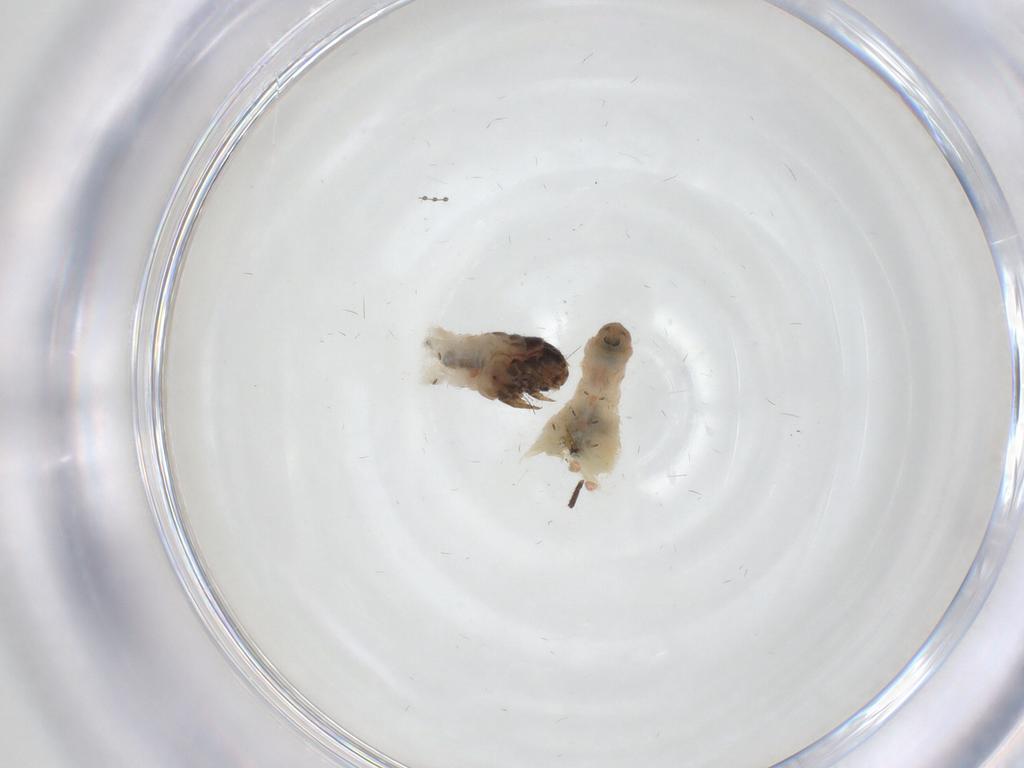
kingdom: Animalia
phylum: Arthropoda
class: Insecta
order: Lepidoptera
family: Psychidae
